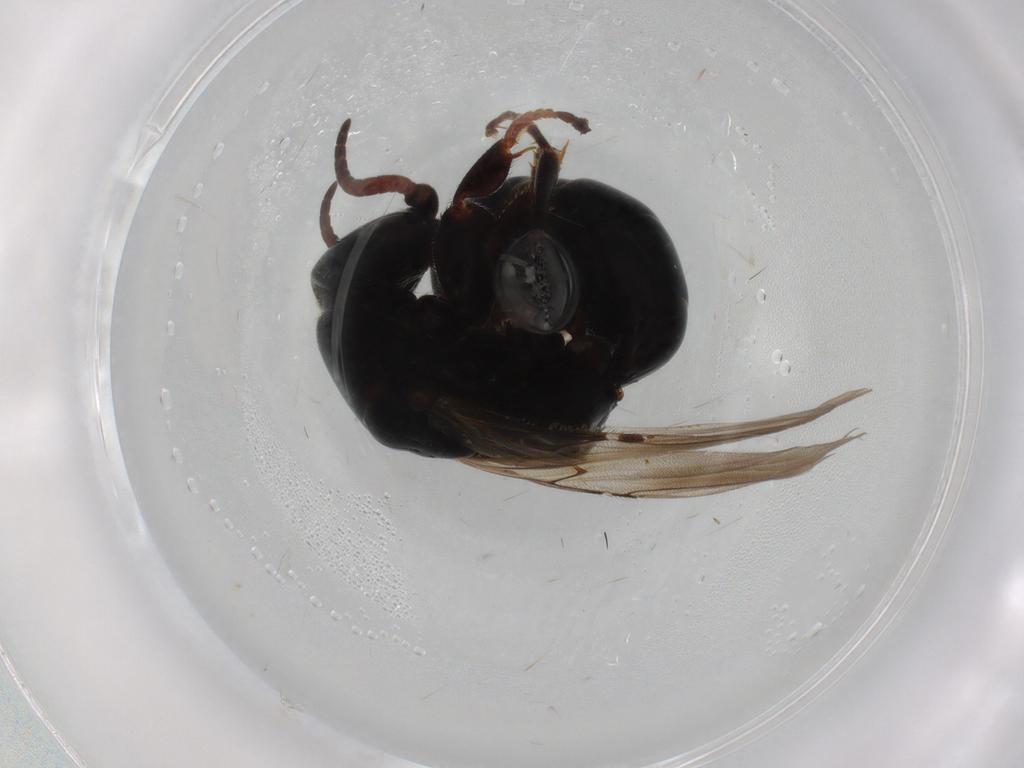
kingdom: Animalia
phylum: Arthropoda
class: Insecta
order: Hymenoptera
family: Bethylidae
